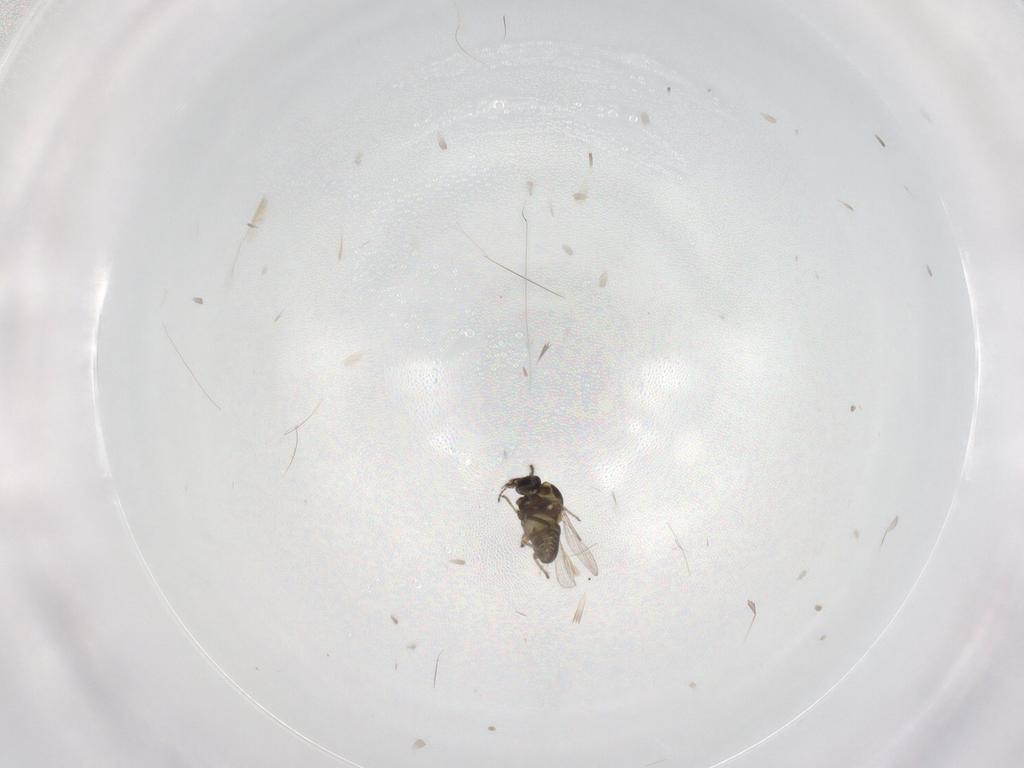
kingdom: Animalia
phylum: Arthropoda
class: Insecta
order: Diptera
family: Ceratopogonidae
